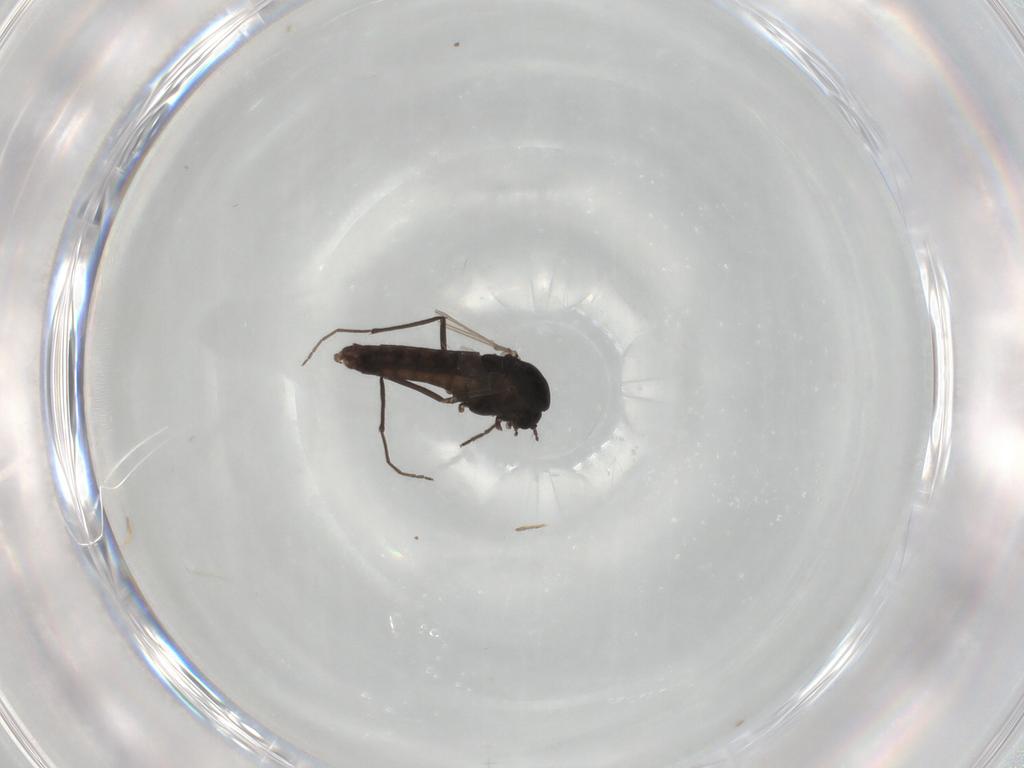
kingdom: Animalia
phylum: Arthropoda
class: Insecta
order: Diptera
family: Chironomidae
